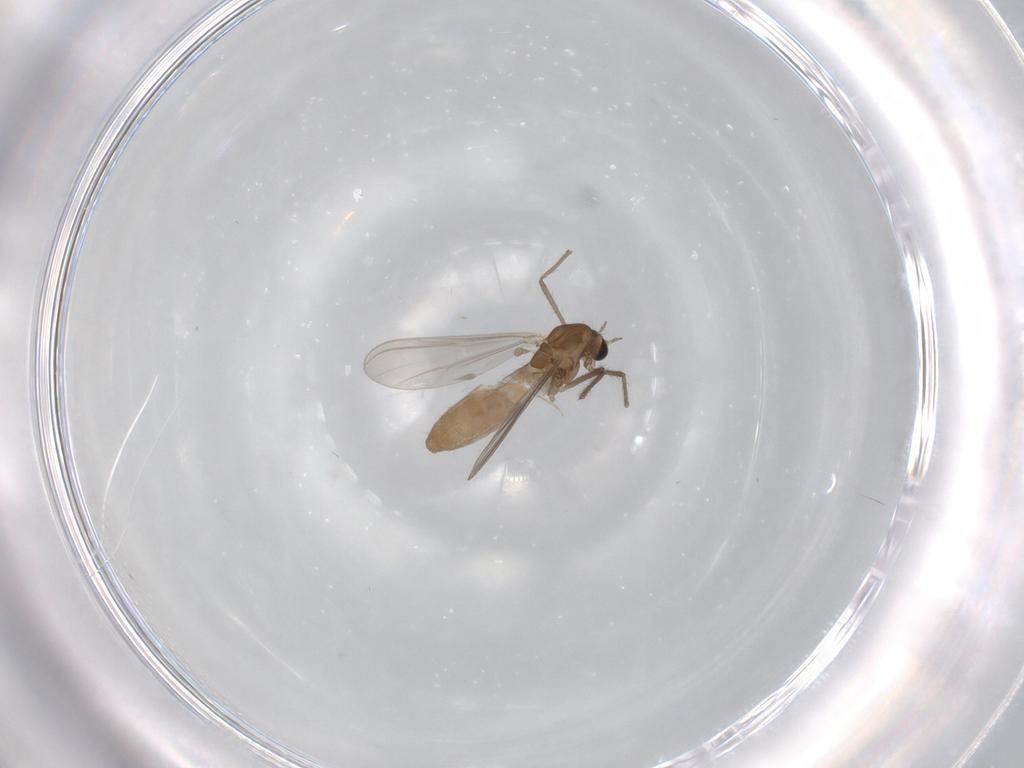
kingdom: Animalia
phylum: Arthropoda
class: Insecta
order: Diptera
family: Chironomidae
